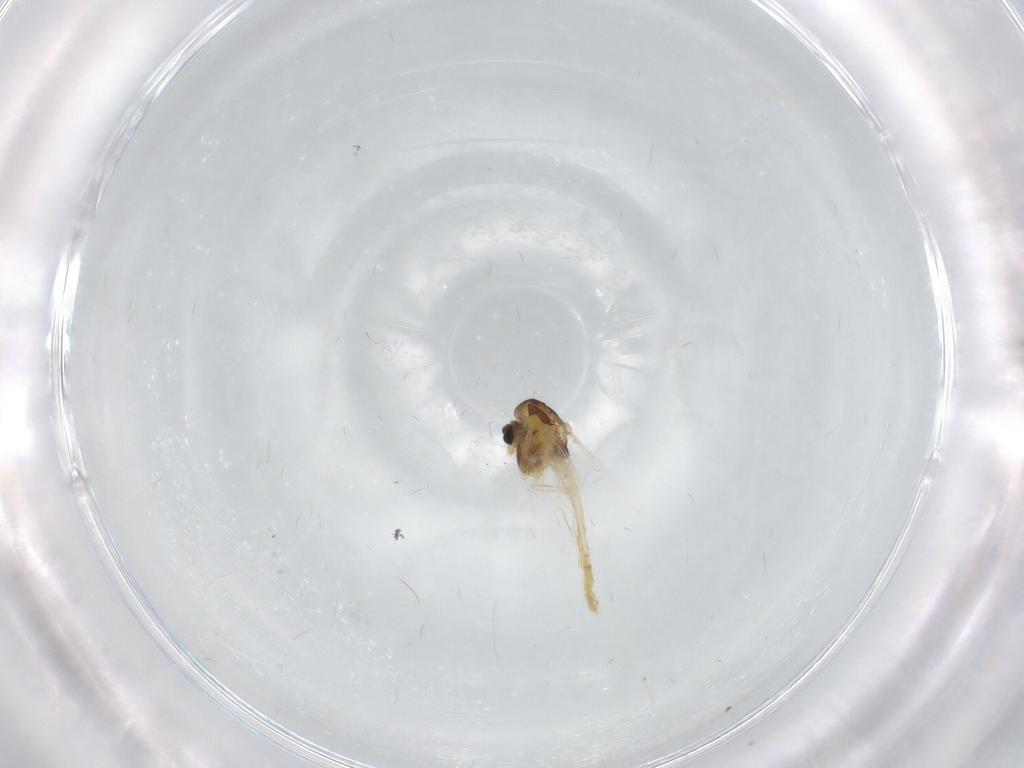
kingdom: Animalia
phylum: Arthropoda
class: Insecta
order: Diptera
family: Chironomidae
